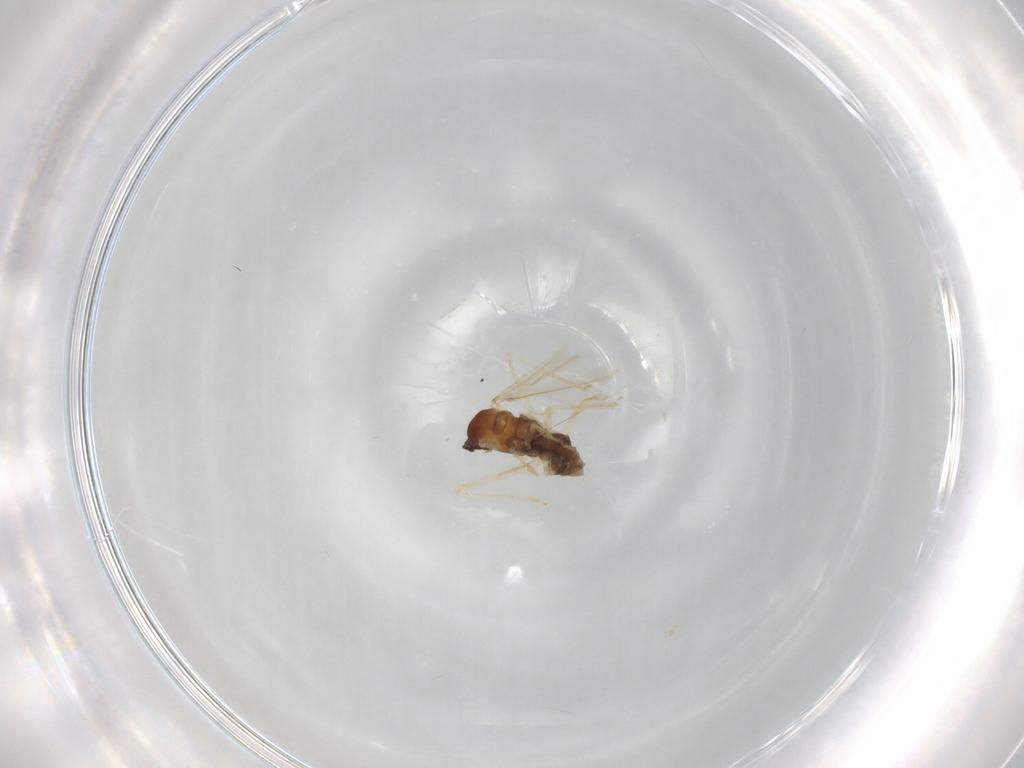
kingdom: Animalia
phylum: Arthropoda
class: Insecta
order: Diptera
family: Cecidomyiidae
